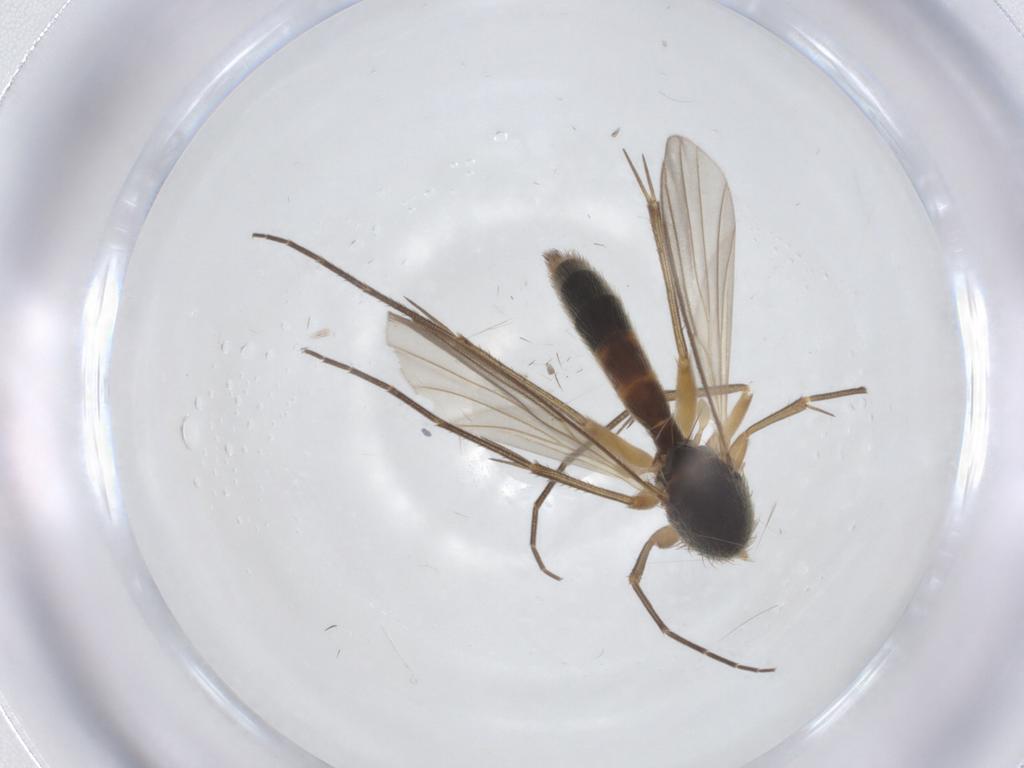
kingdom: Animalia
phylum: Arthropoda
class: Insecta
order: Diptera
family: Mycetophilidae
